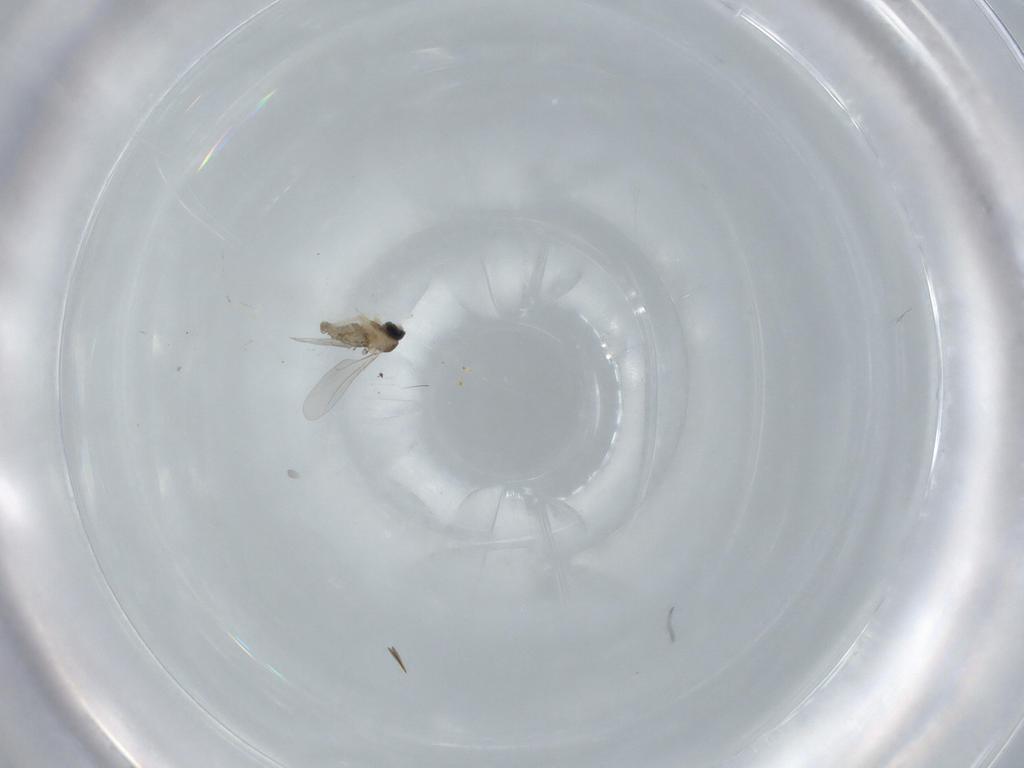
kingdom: Animalia
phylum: Arthropoda
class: Insecta
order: Diptera
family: Cecidomyiidae
